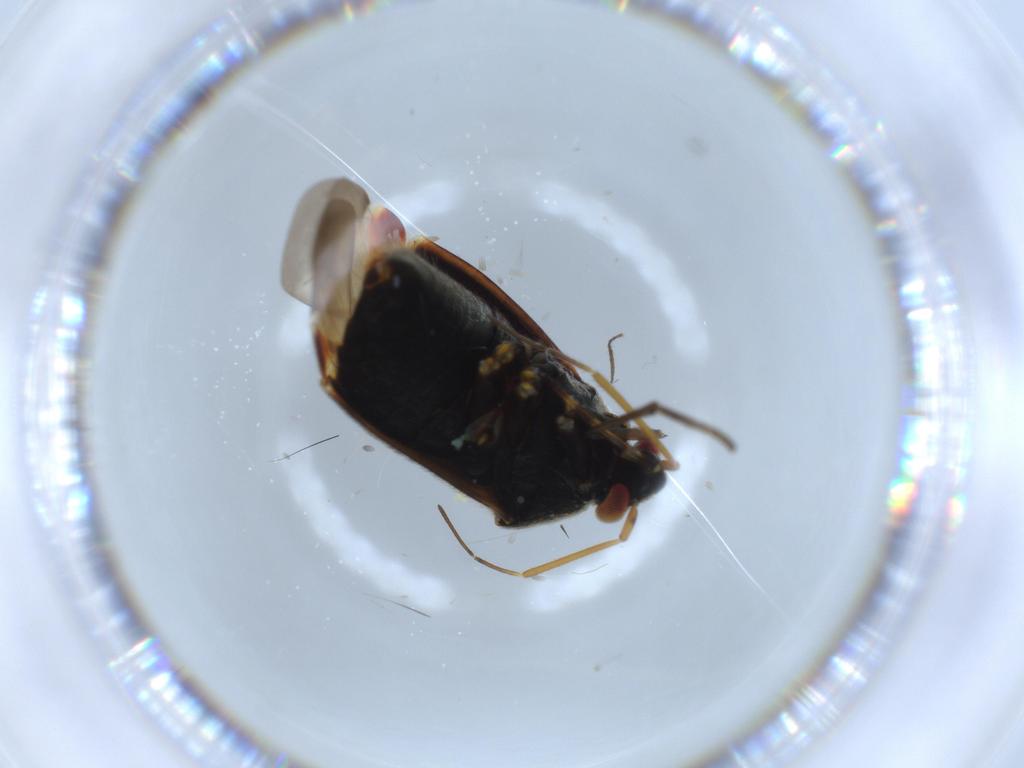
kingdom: Animalia
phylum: Arthropoda
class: Insecta
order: Hemiptera
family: Miridae
